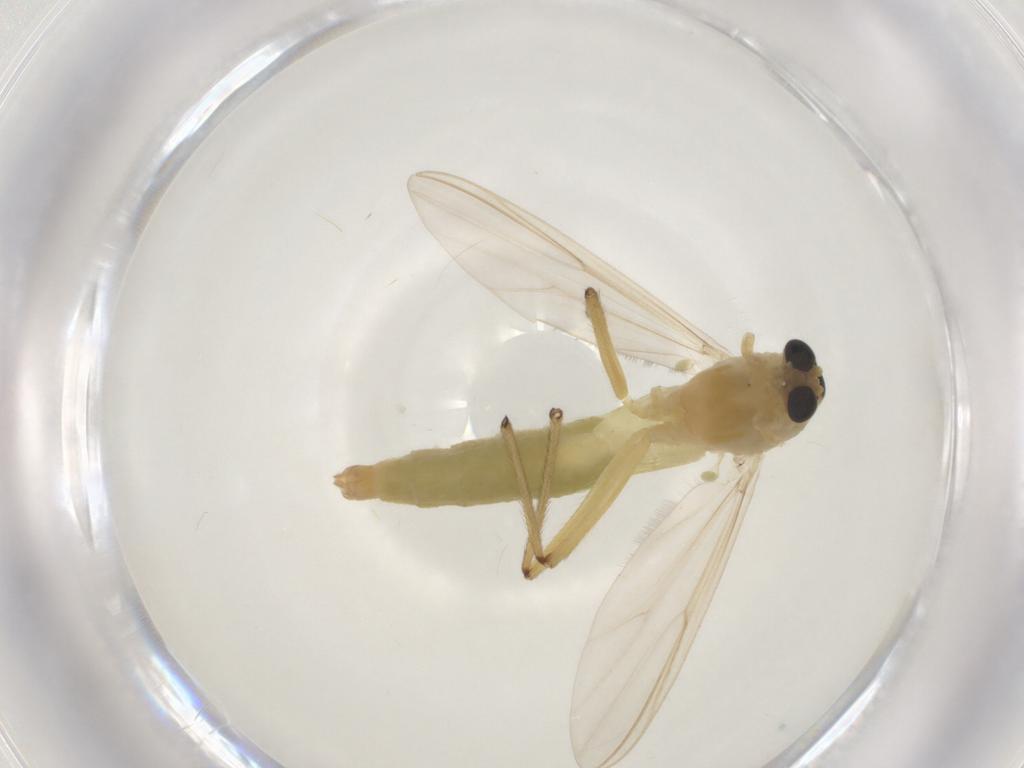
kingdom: Animalia
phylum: Arthropoda
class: Insecta
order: Diptera
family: Chironomidae
